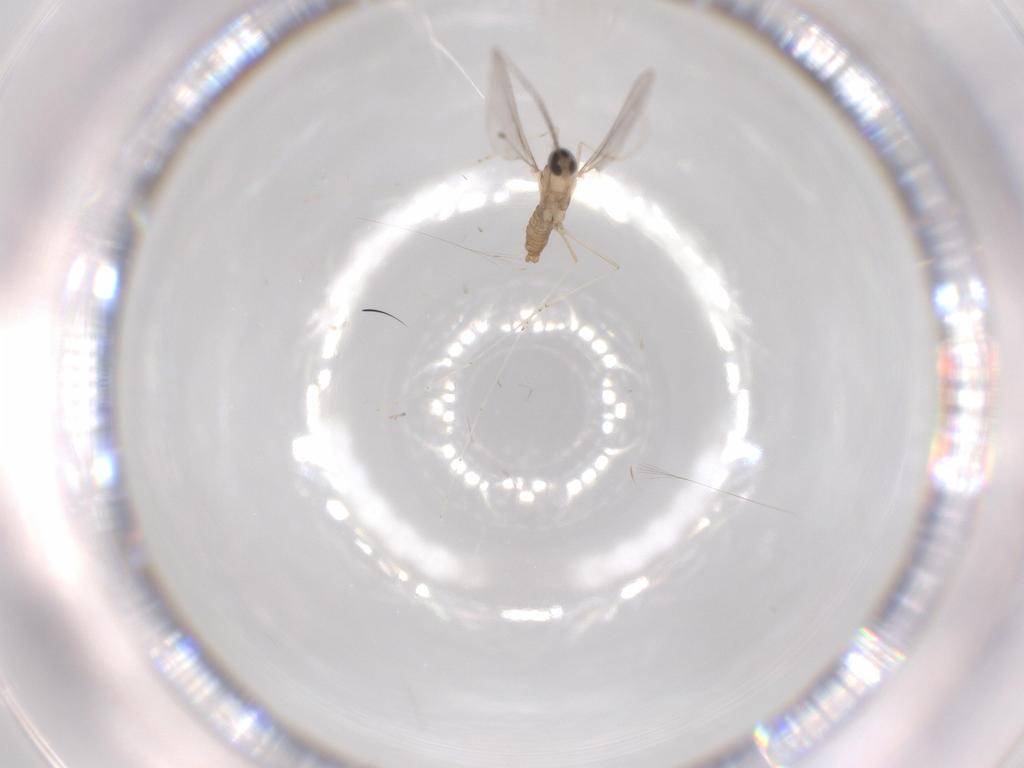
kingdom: Animalia
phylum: Arthropoda
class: Insecta
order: Diptera
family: Cecidomyiidae
